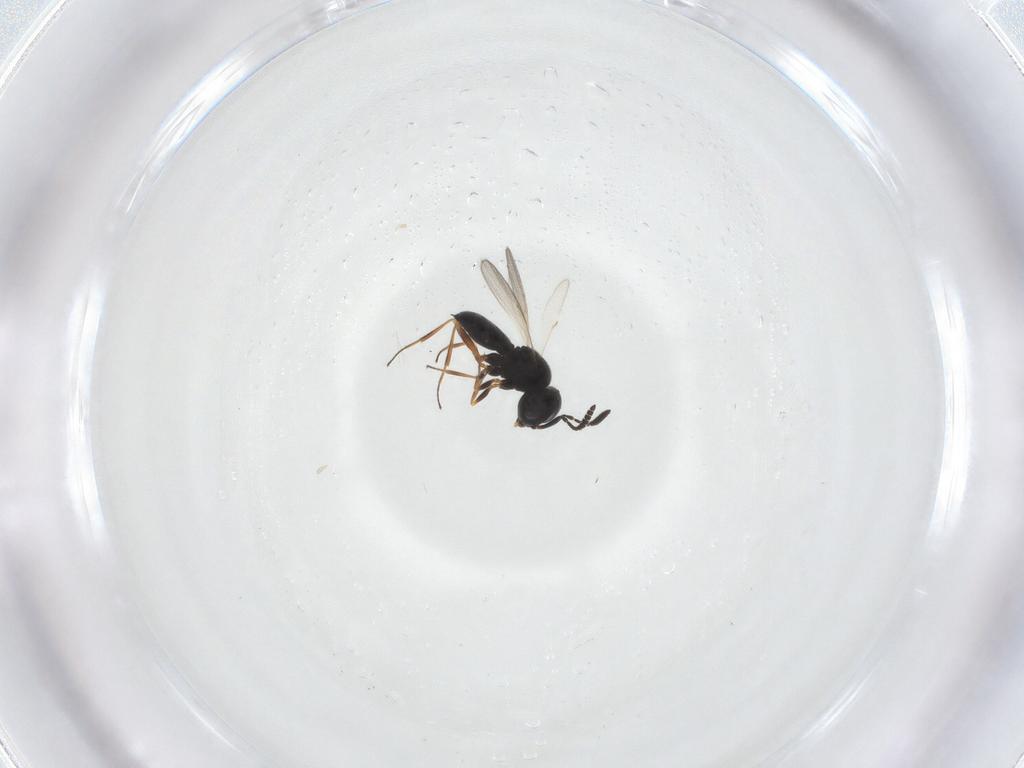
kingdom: Animalia
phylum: Arthropoda
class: Insecta
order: Hymenoptera
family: Scelionidae
